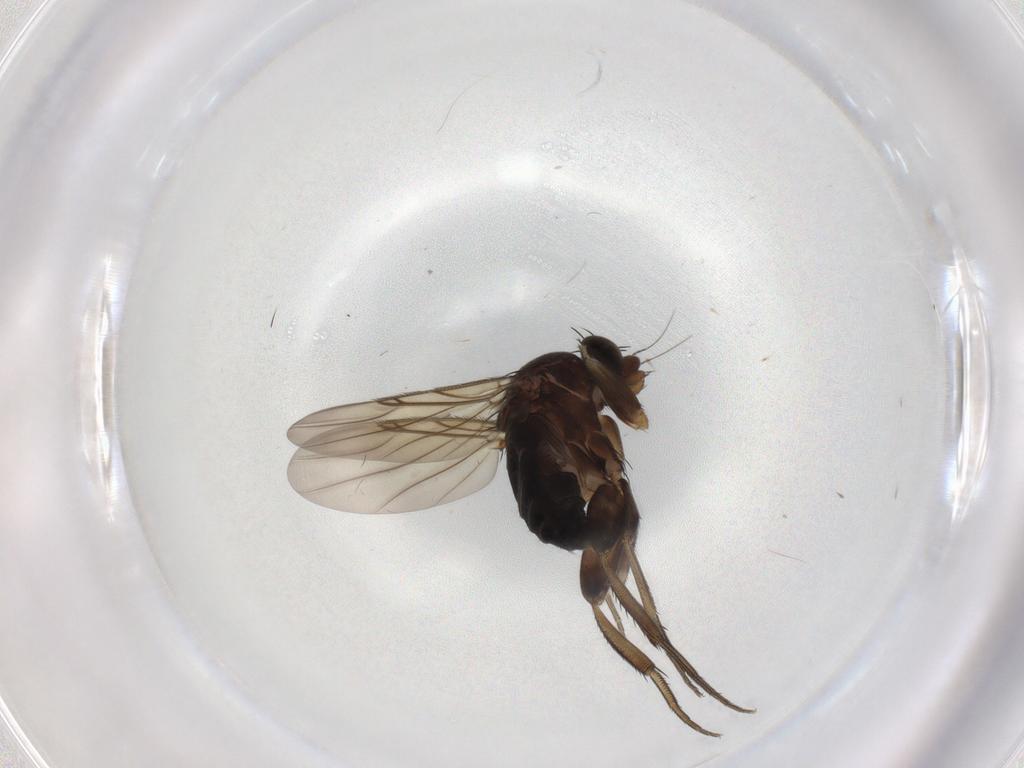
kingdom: Animalia
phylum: Arthropoda
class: Insecta
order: Diptera
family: Phoridae
